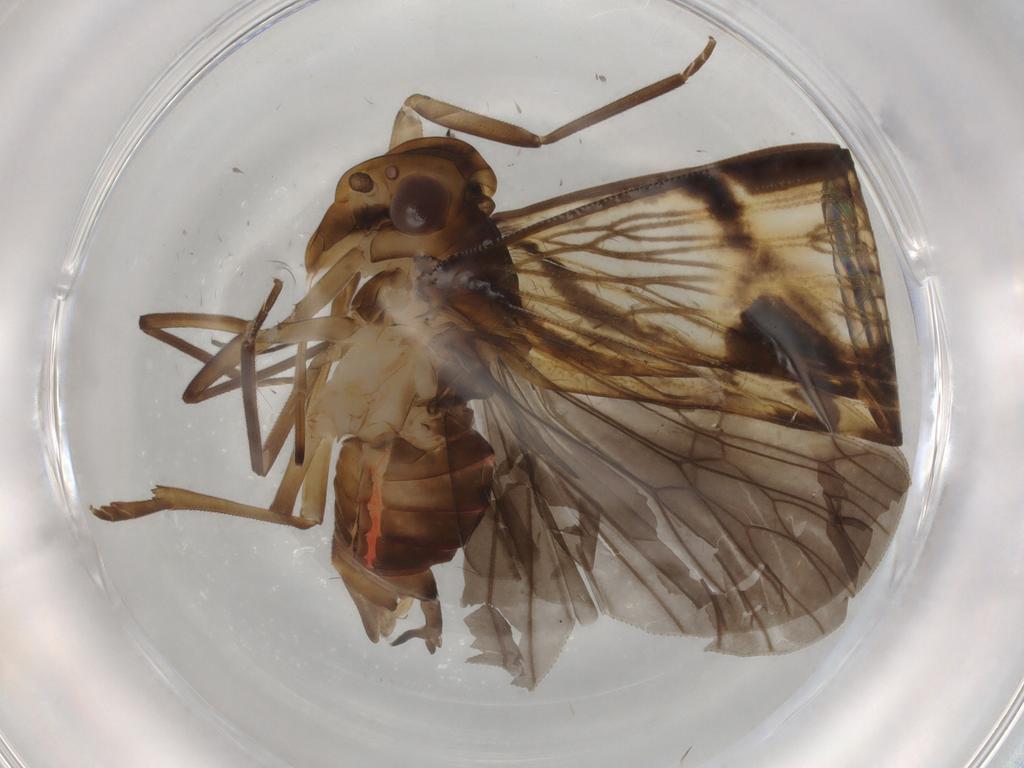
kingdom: Animalia
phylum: Arthropoda
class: Insecta
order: Hemiptera
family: Cixiidae
